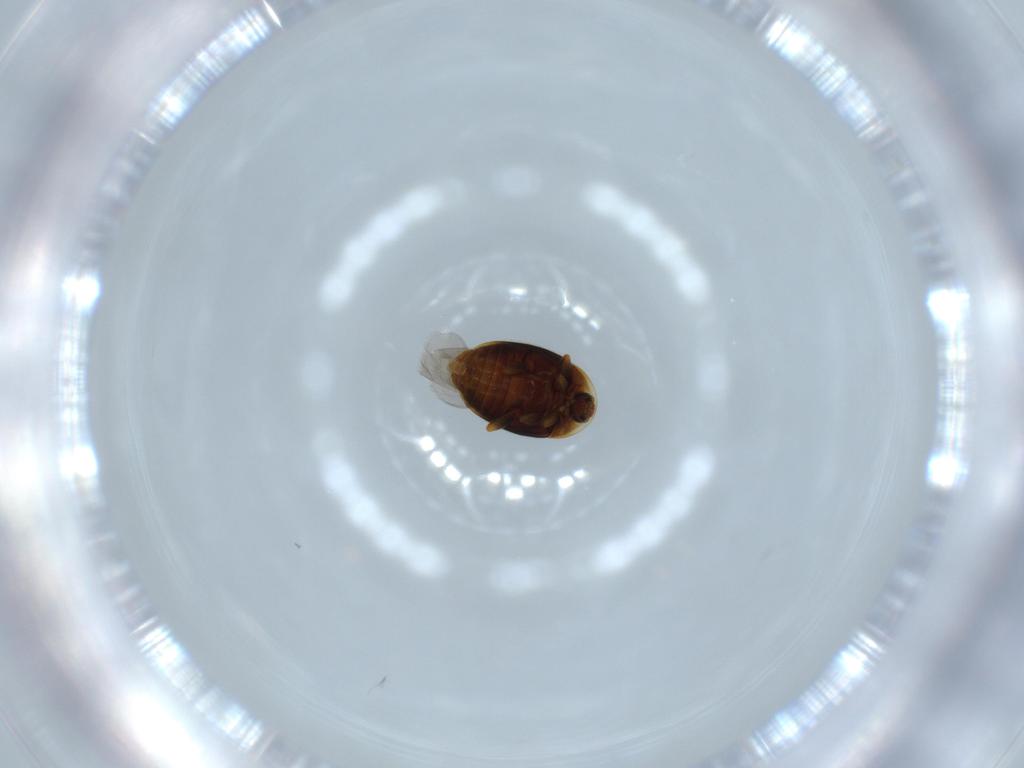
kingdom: Animalia
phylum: Arthropoda
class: Insecta
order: Coleoptera
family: Corylophidae
